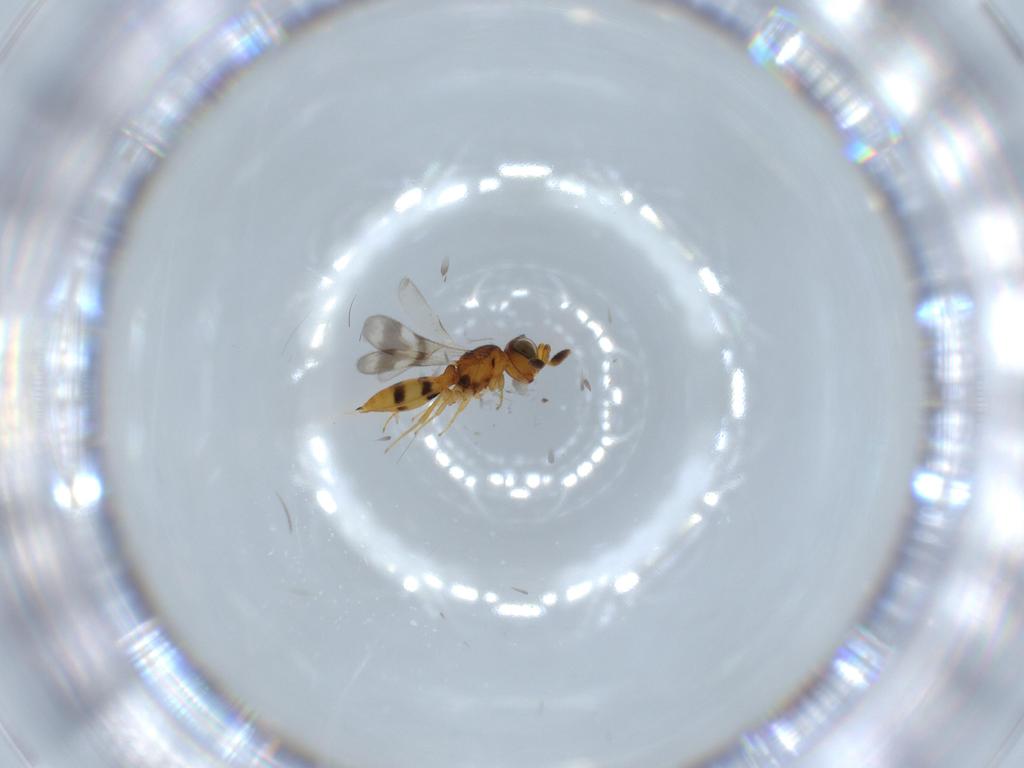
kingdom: Animalia
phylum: Arthropoda
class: Insecta
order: Hymenoptera
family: Scelionidae
